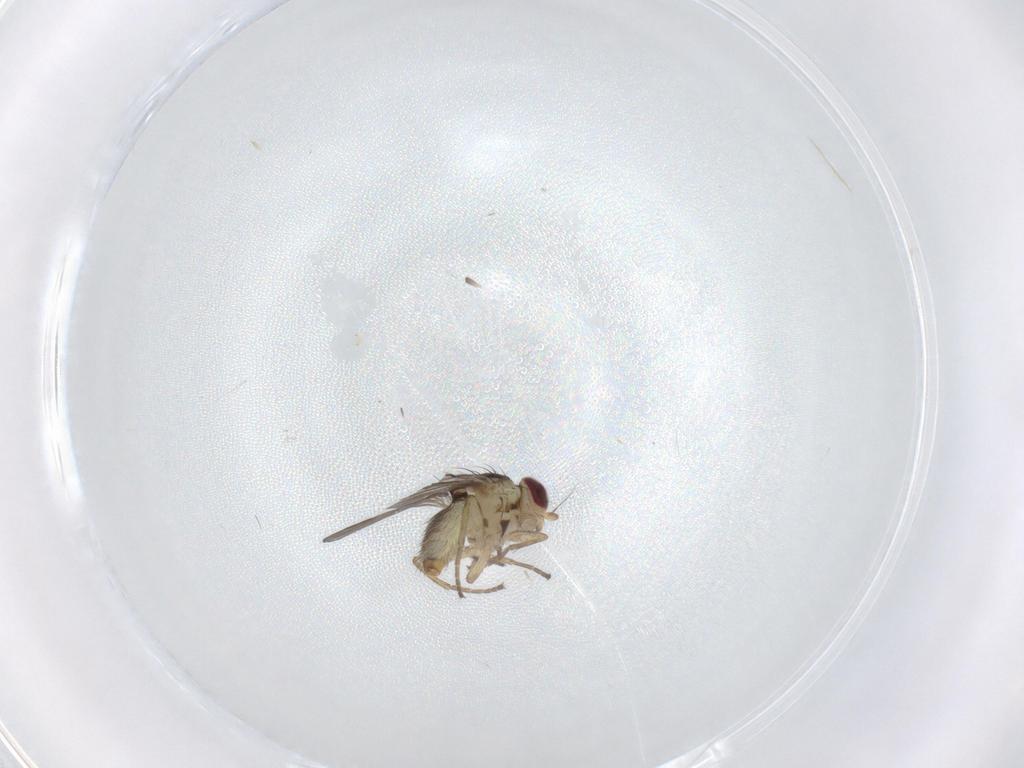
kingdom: Animalia
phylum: Arthropoda
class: Insecta
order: Diptera
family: Agromyzidae
